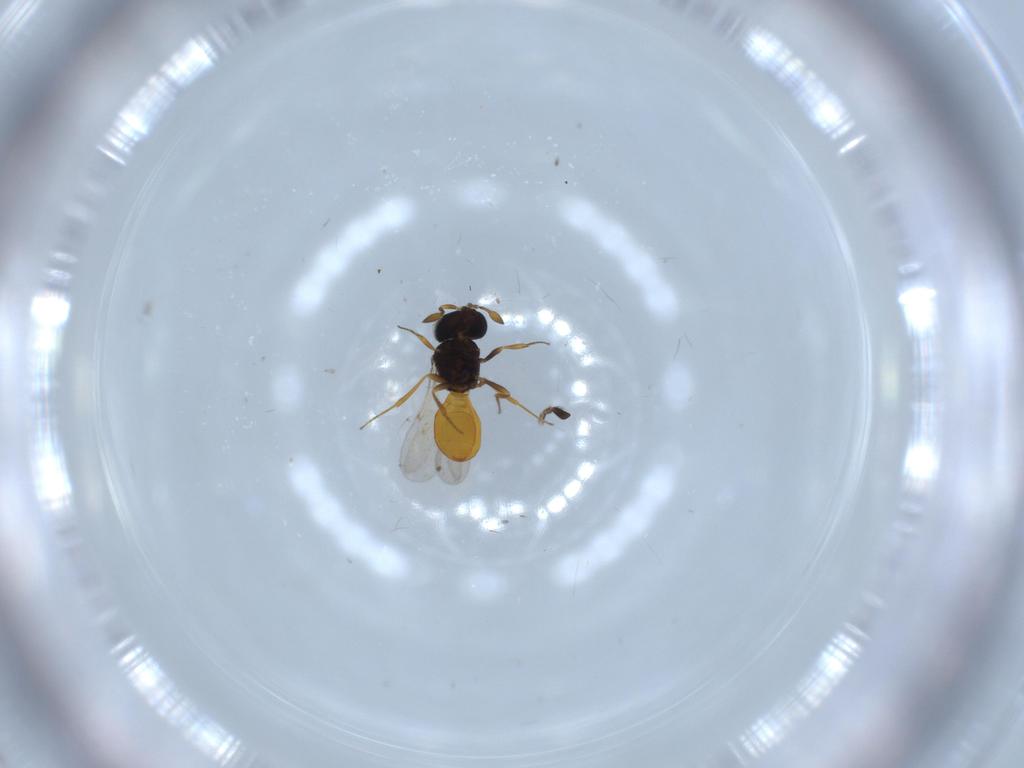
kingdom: Animalia
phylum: Arthropoda
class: Insecta
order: Hymenoptera
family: Scelionidae
